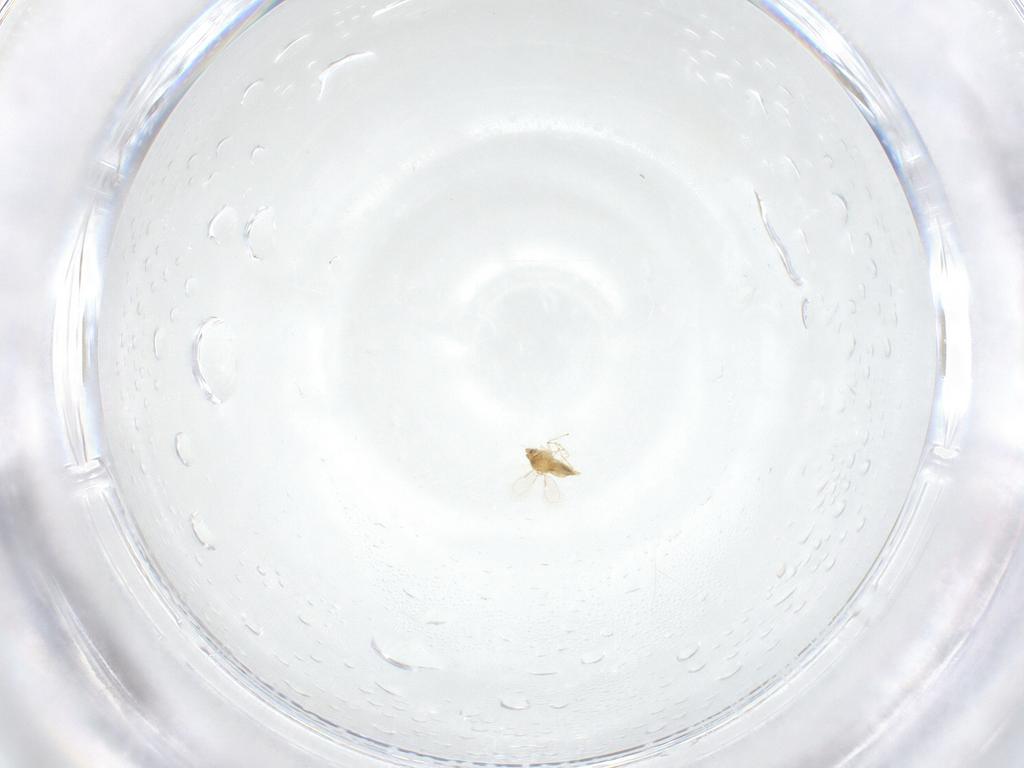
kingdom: Animalia
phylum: Arthropoda
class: Insecta
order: Hymenoptera
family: Aphelinidae
